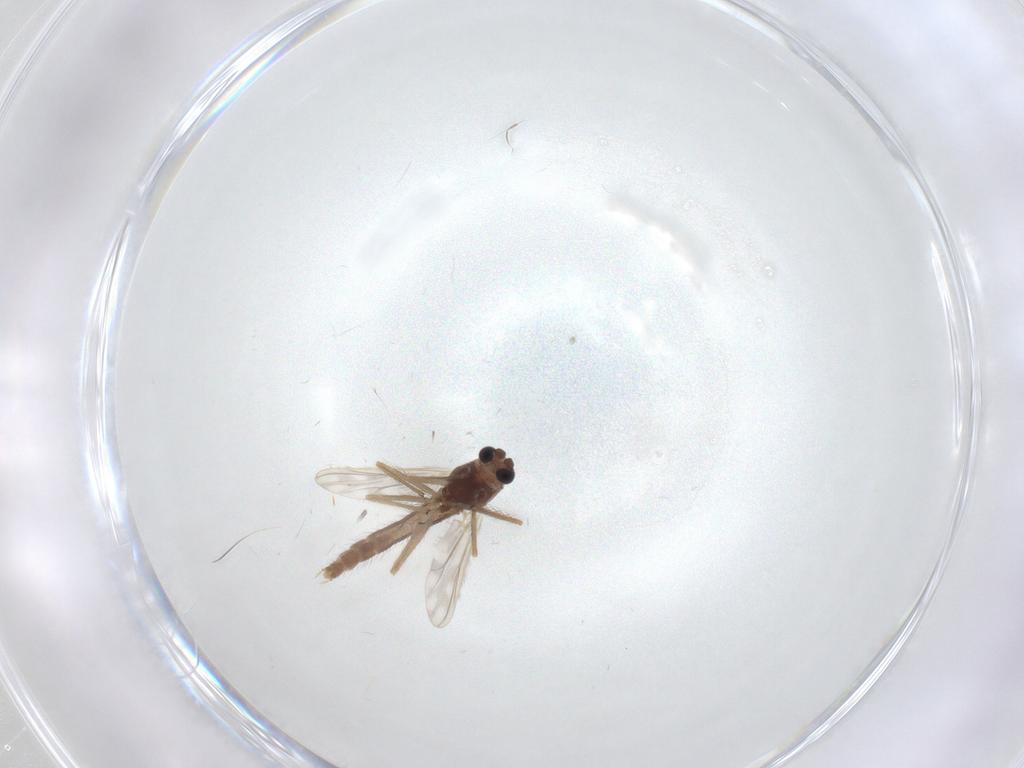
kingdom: Animalia
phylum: Arthropoda
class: Insecta
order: Diptera
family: Chironomidae
